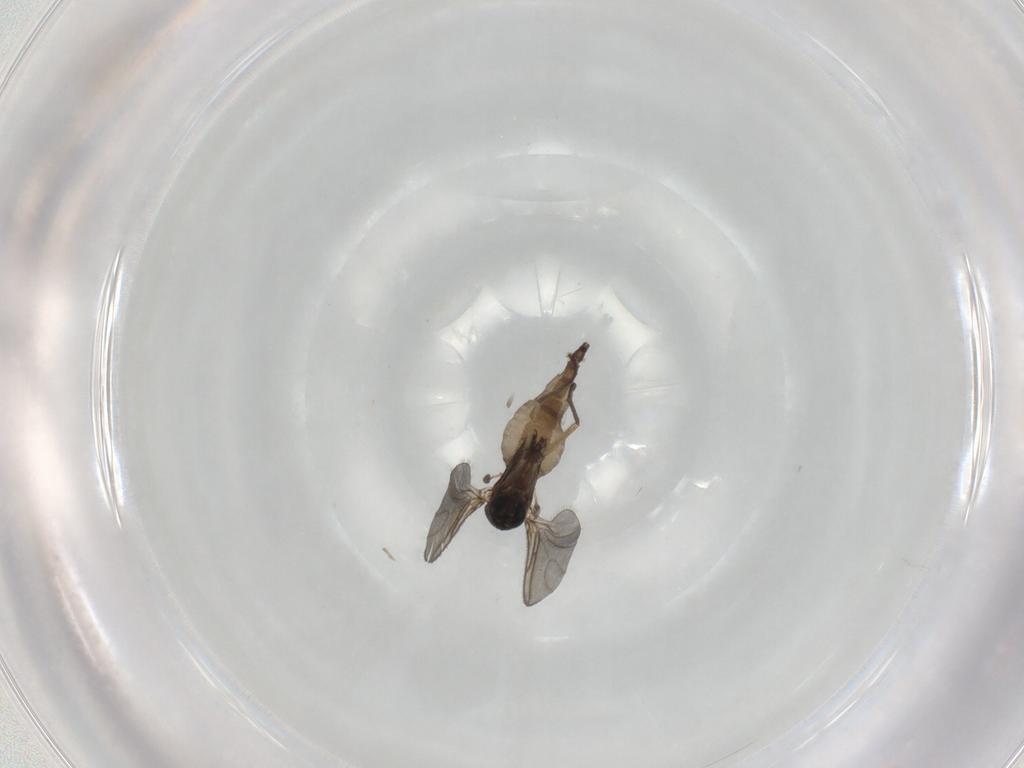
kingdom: Animalia
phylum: Arthropoda
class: Insecta
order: Diptera
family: Sciaridae
